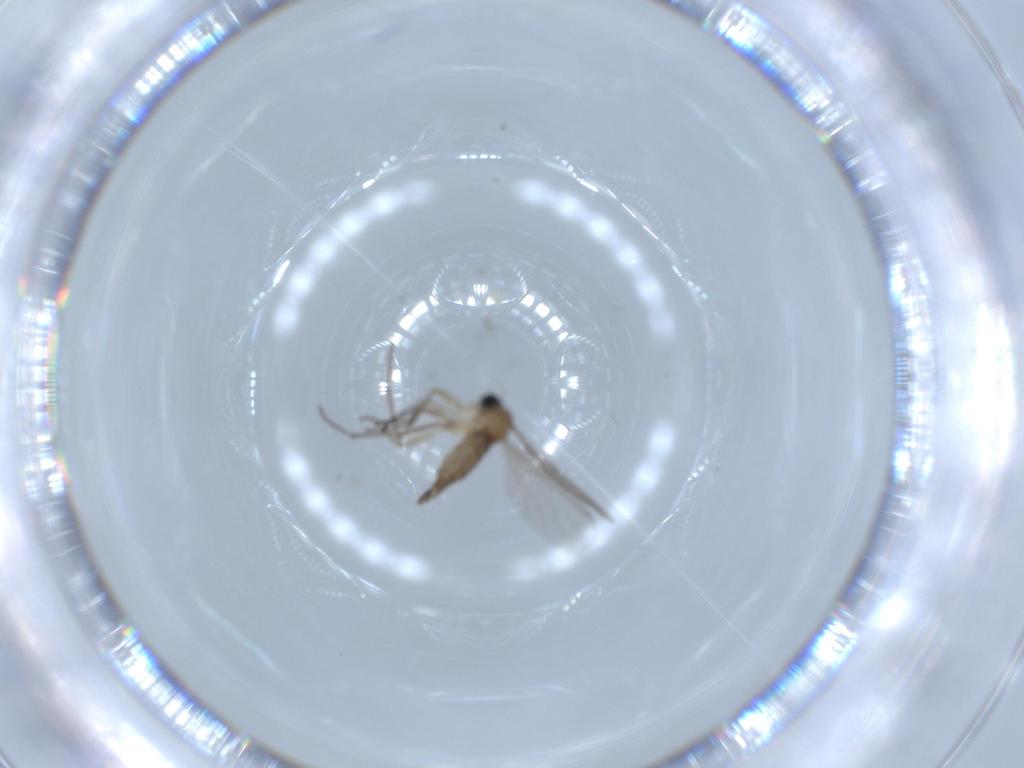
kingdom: Animalia
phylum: Arthropoda
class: Insecta
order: Diptera
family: Sciaridae
